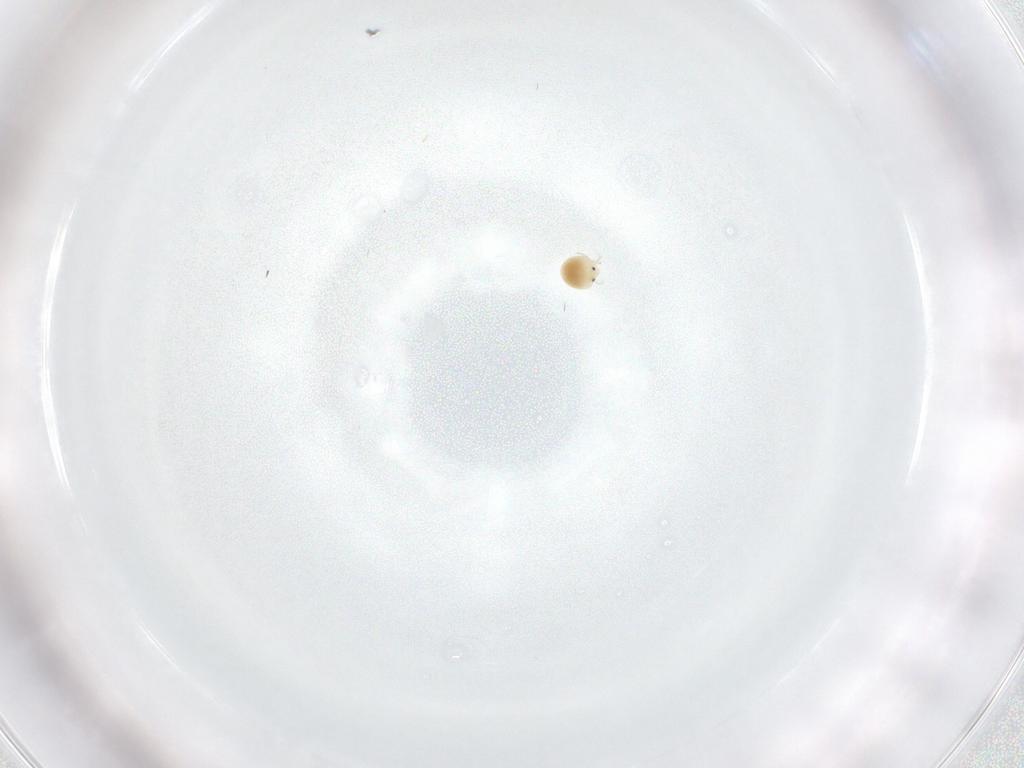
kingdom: Animalia
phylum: Arthropoda
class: Arachnida
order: Trombidiformes
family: Unionicolidae
